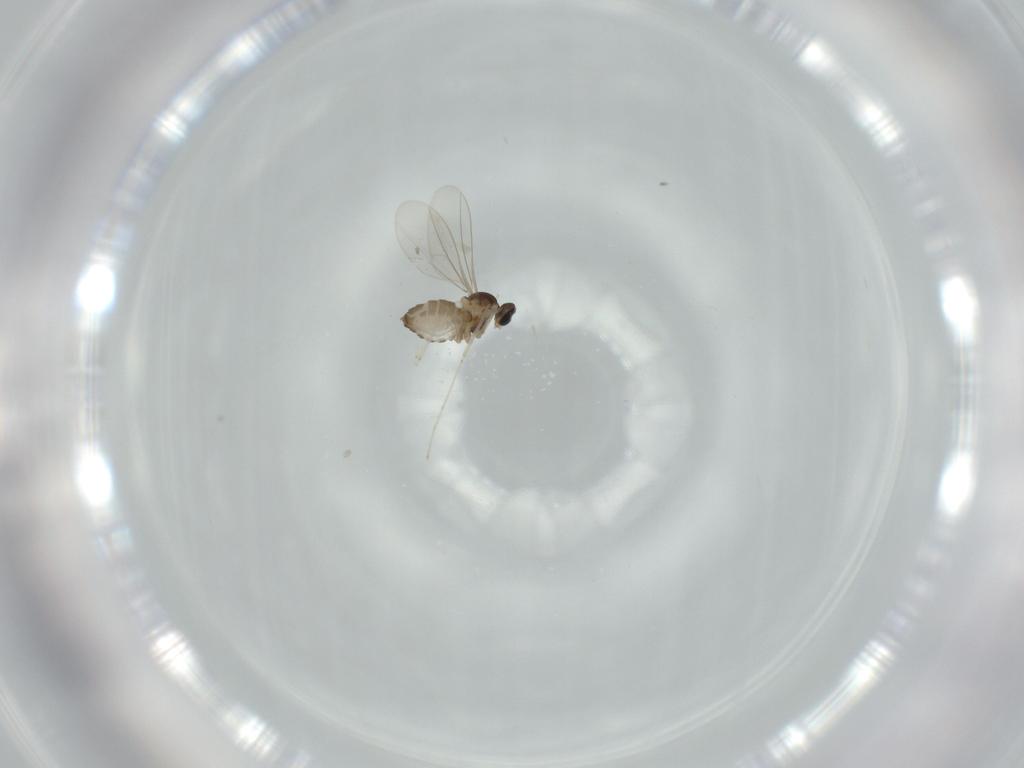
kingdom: Animalia
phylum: Arthropoda
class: Insecta
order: Diptera
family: Cecidomyiidae
